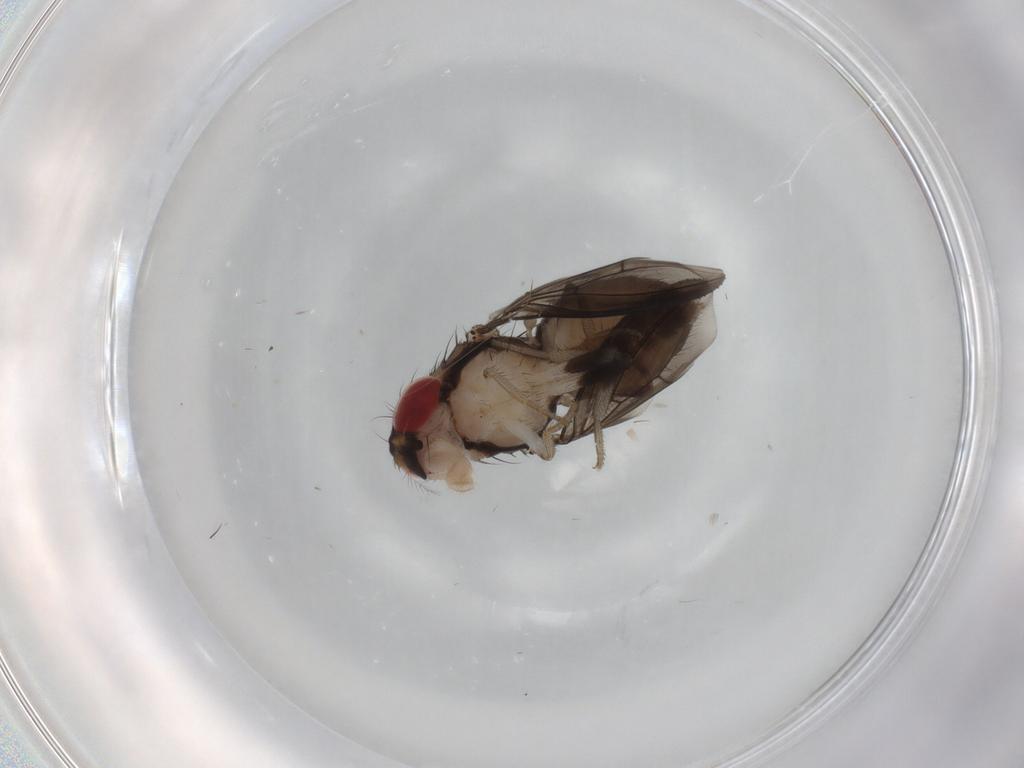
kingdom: Animalia
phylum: Arthropoda
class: Insecta
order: Diptera
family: Drosophilidae
